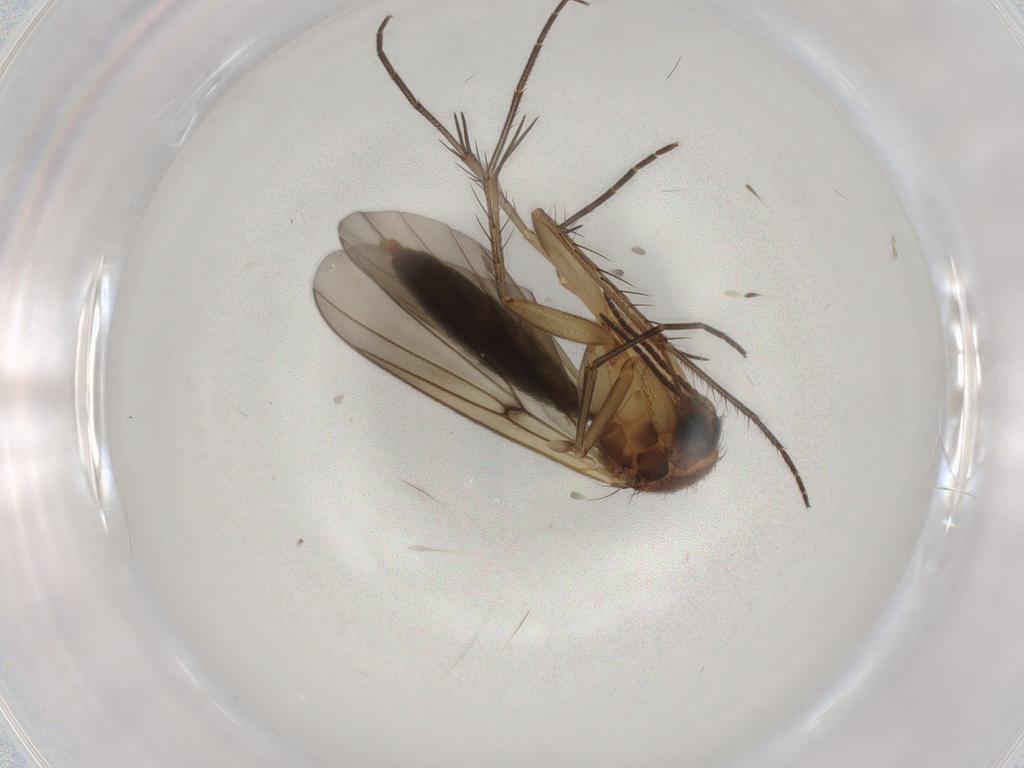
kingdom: Animalia
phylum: Arthropoda
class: Insecta
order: Diptera
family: Mycetophilidae
